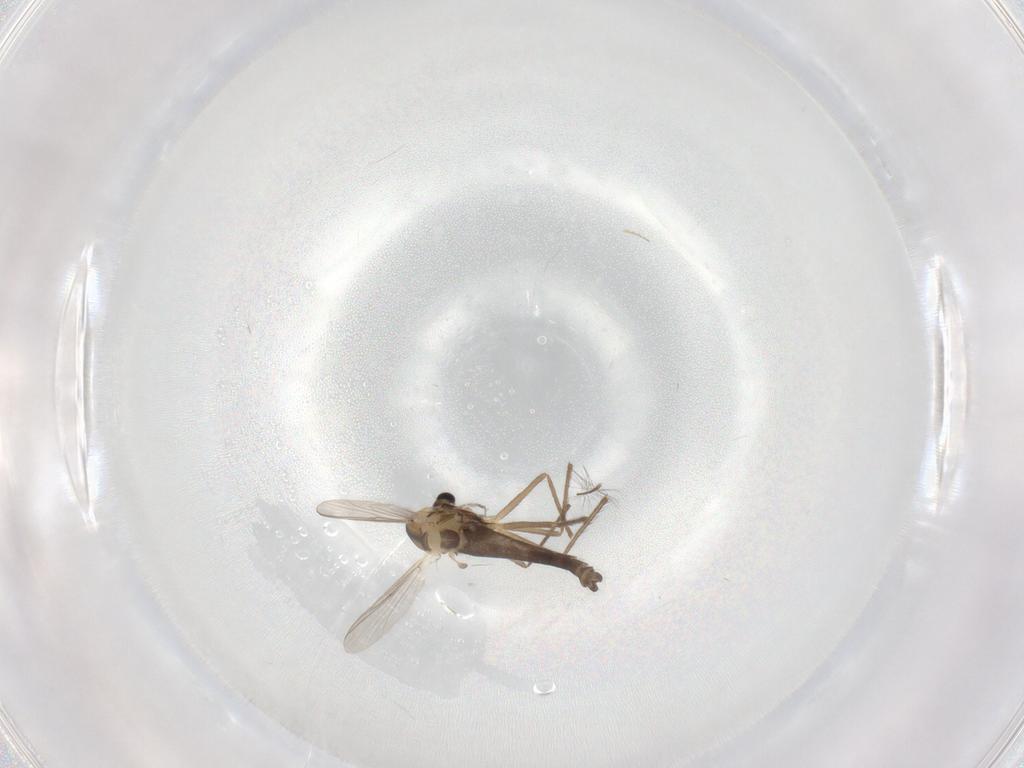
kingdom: Animalia
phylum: Arthropoda
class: Insecta
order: Diptera
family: Chironomidae
